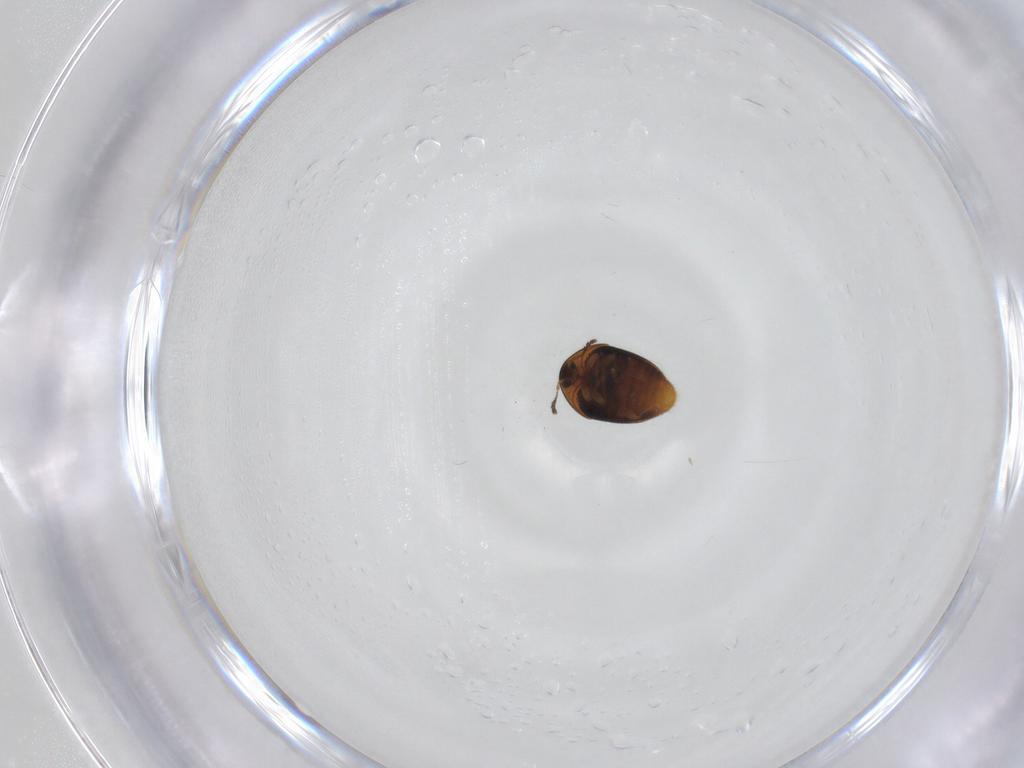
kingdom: Animalia
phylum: Arthropoda
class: Insecta
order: Coleoptera
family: Corylophidae
